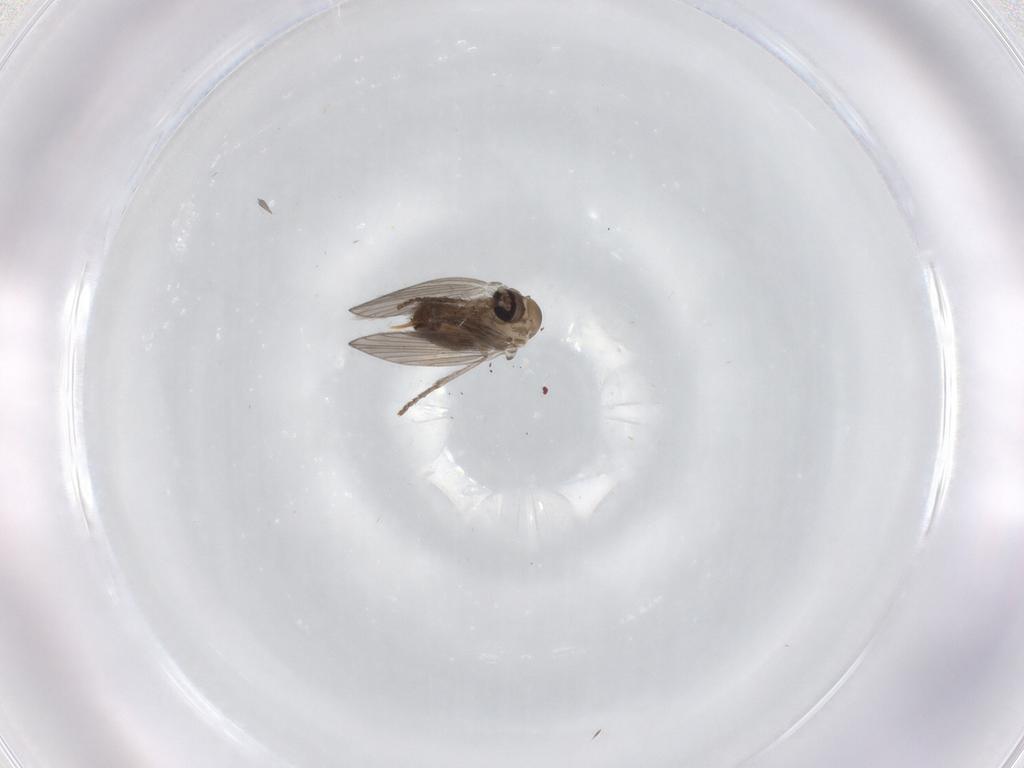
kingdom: Animalia
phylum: Arthropoda
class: Insecta
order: Diptera
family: Psychodidae
